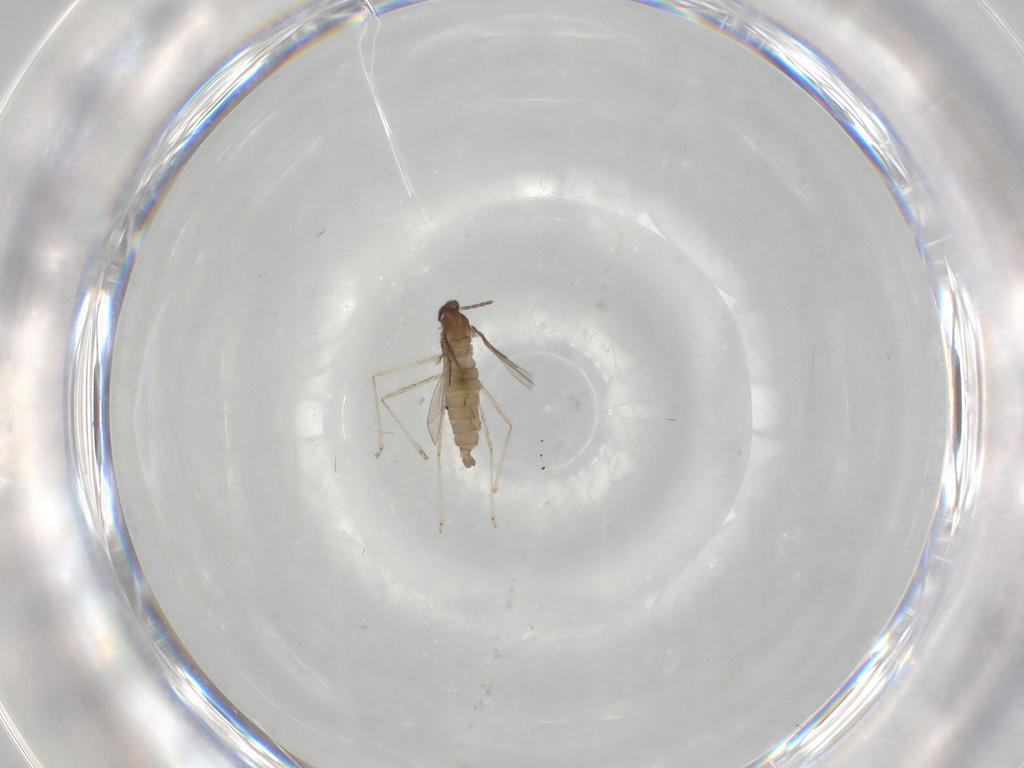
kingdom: Animalia
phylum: Arthropoda
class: Insecta
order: Diptera
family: Cecidomyiidae
